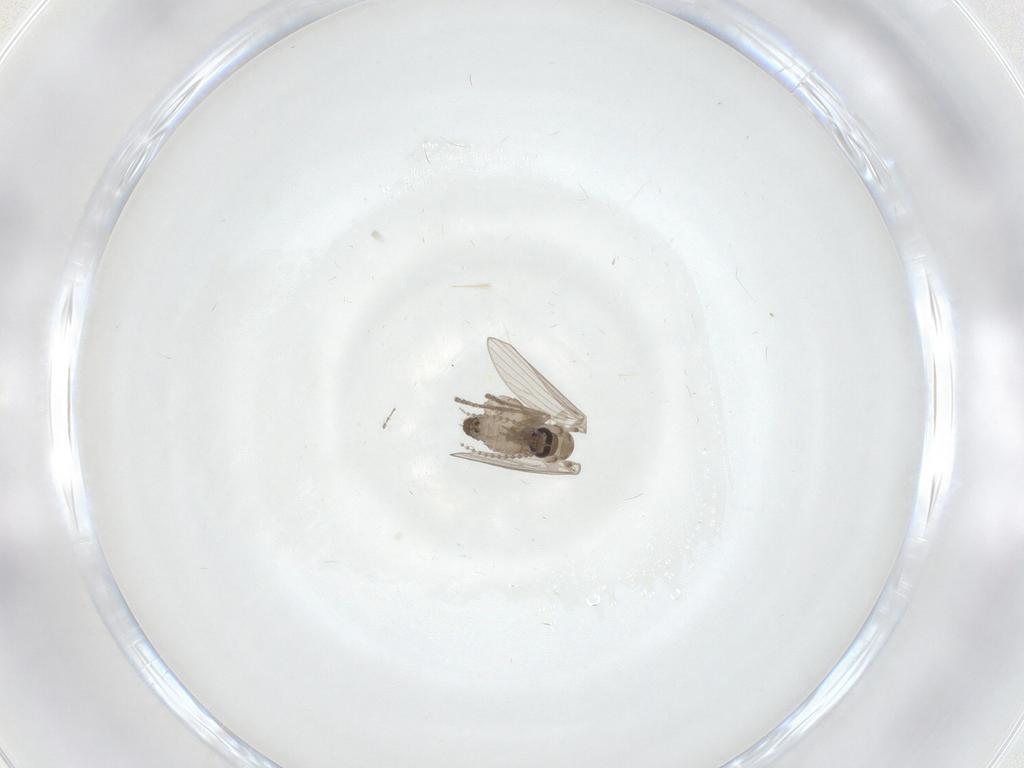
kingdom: Animalia
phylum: Arthropoda
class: Insecta
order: Diptera
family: Psychodidae
